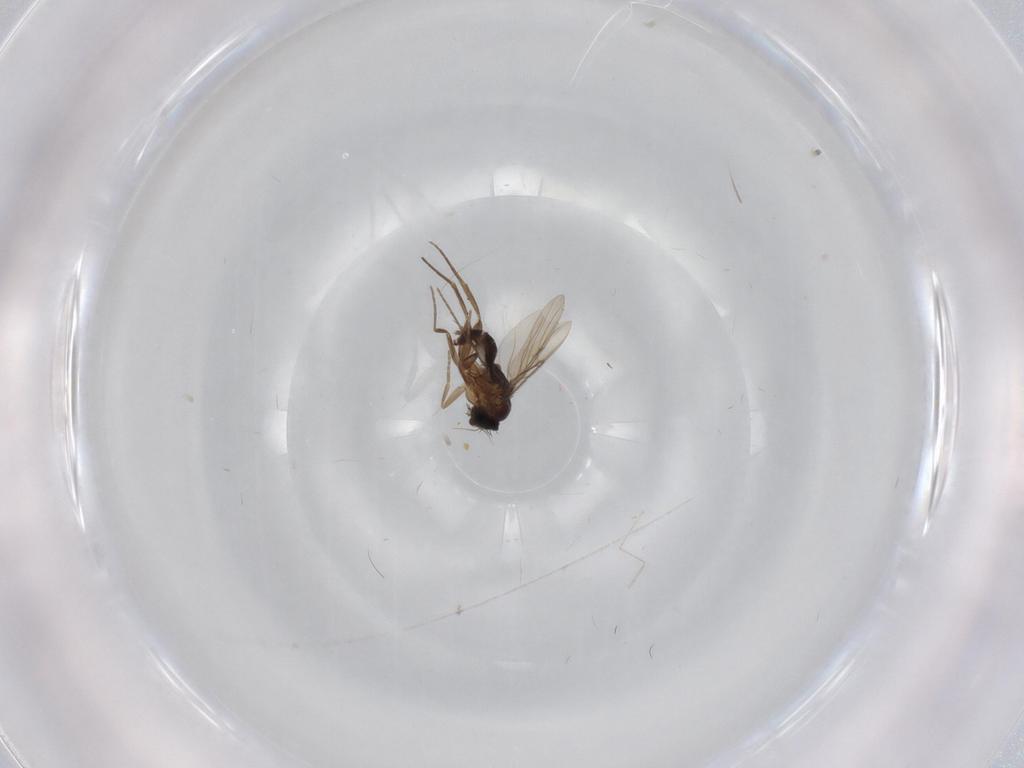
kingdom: Animalia
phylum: Arthropoda
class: Insecta
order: Diptera
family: Phoridae
